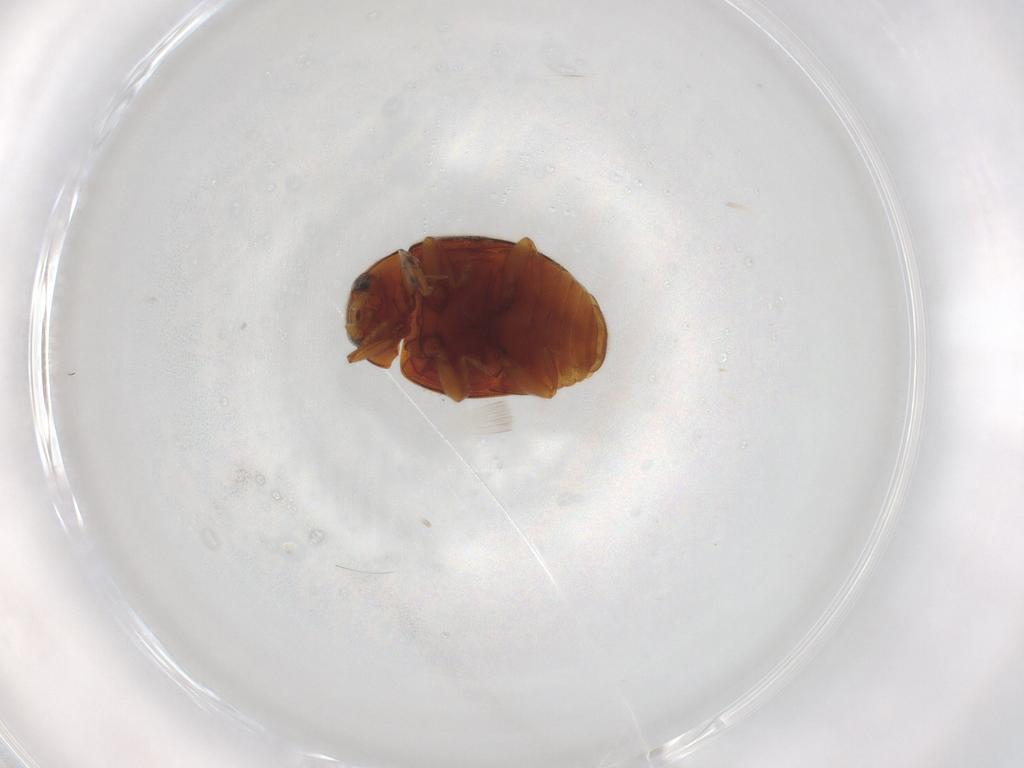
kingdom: Animalia
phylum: Arthropoda
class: Insecta
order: Coleoptera
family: Coccinellidae
